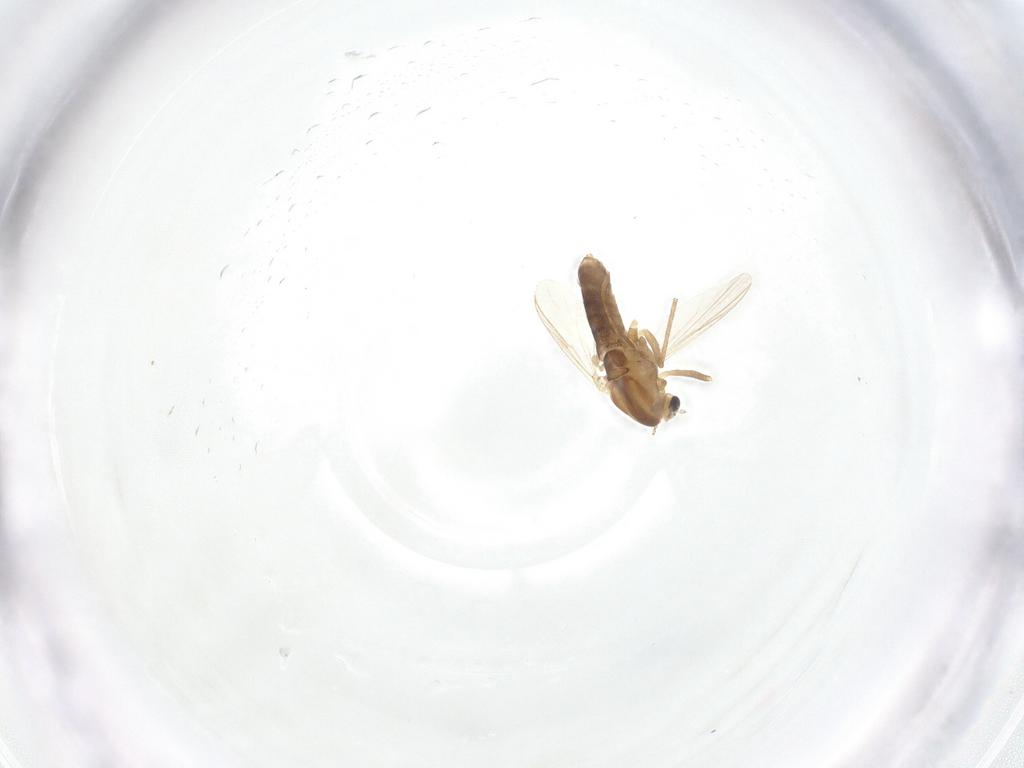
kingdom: Animalia
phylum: Arthropoda
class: Insecta
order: Diptera
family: Chironomidae
